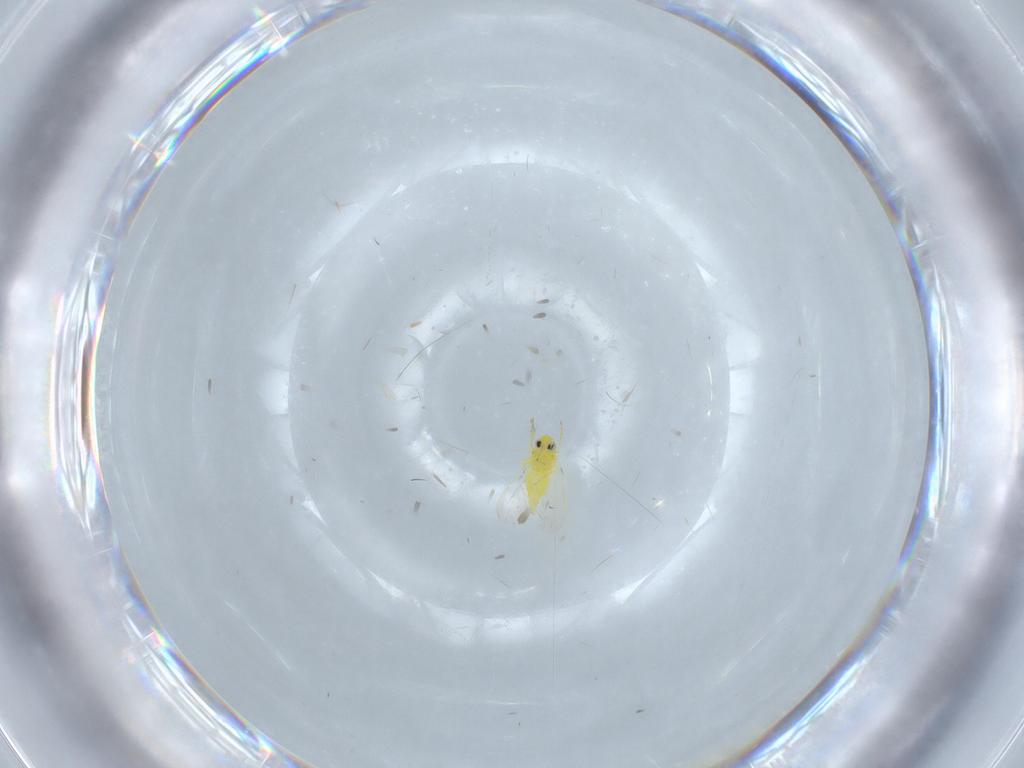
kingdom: Animalia
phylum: Arthropoda
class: Insecta
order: Hemiptera
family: Aleyrodidae
